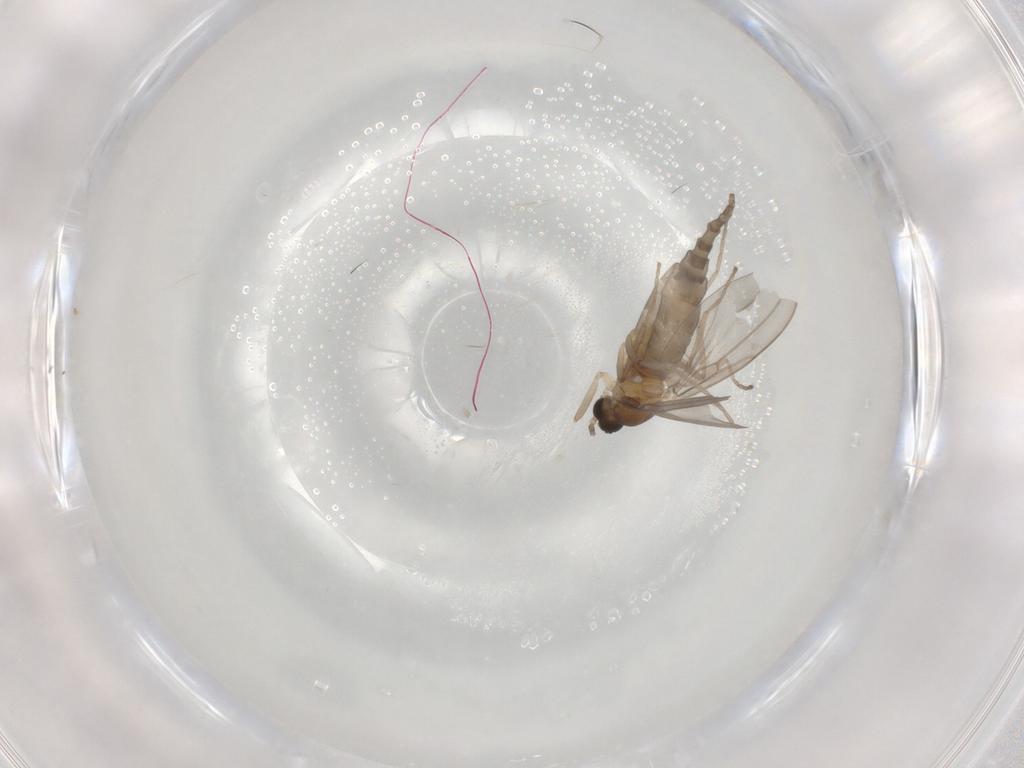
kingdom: Animalia
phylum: Arthropoda
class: Insecta
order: Diptera
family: Cecidomyiidae
